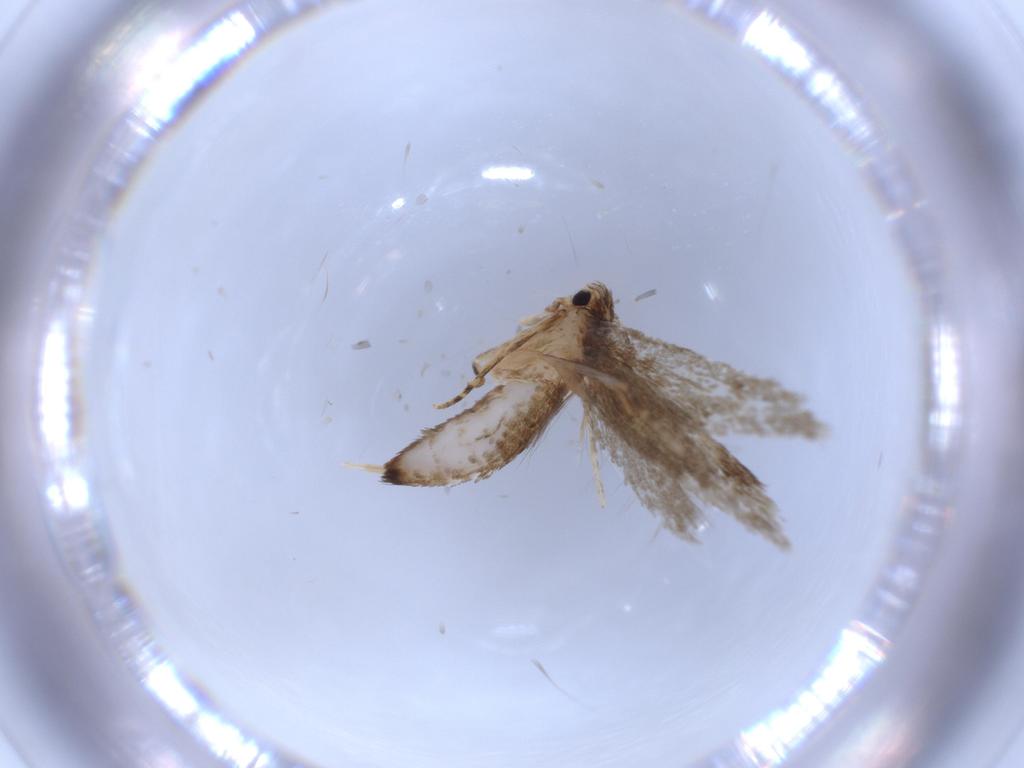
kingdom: Animalia
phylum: Arthropoda
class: Insecta
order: Lepidoptera
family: Tineidae
